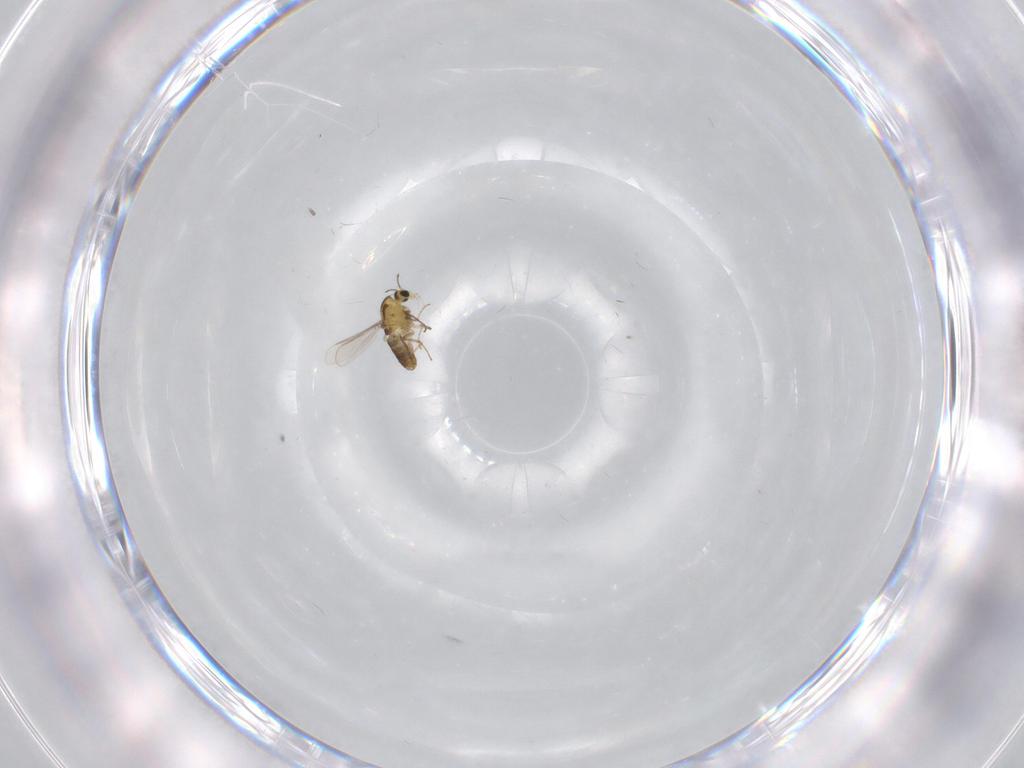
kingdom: Animalia
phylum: Arthropoda
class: Insecta
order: Diptera
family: Chironomidae
